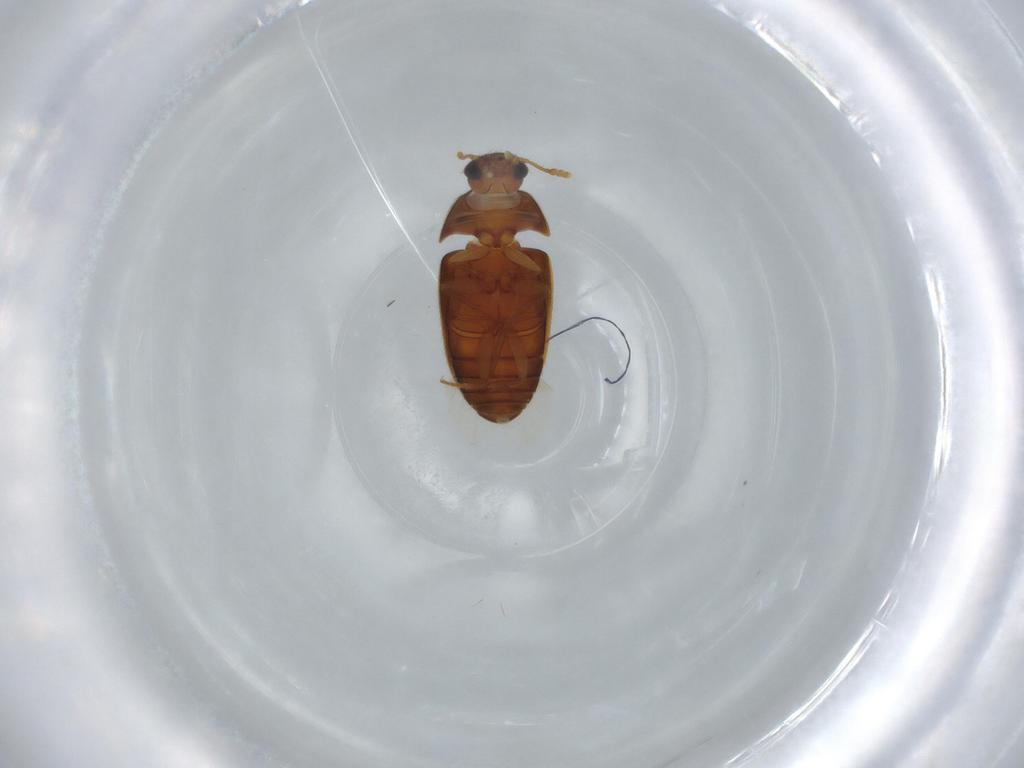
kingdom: Animalia
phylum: Arthropoda
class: Insecta
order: Coleoptera
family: Mycetophagidae
